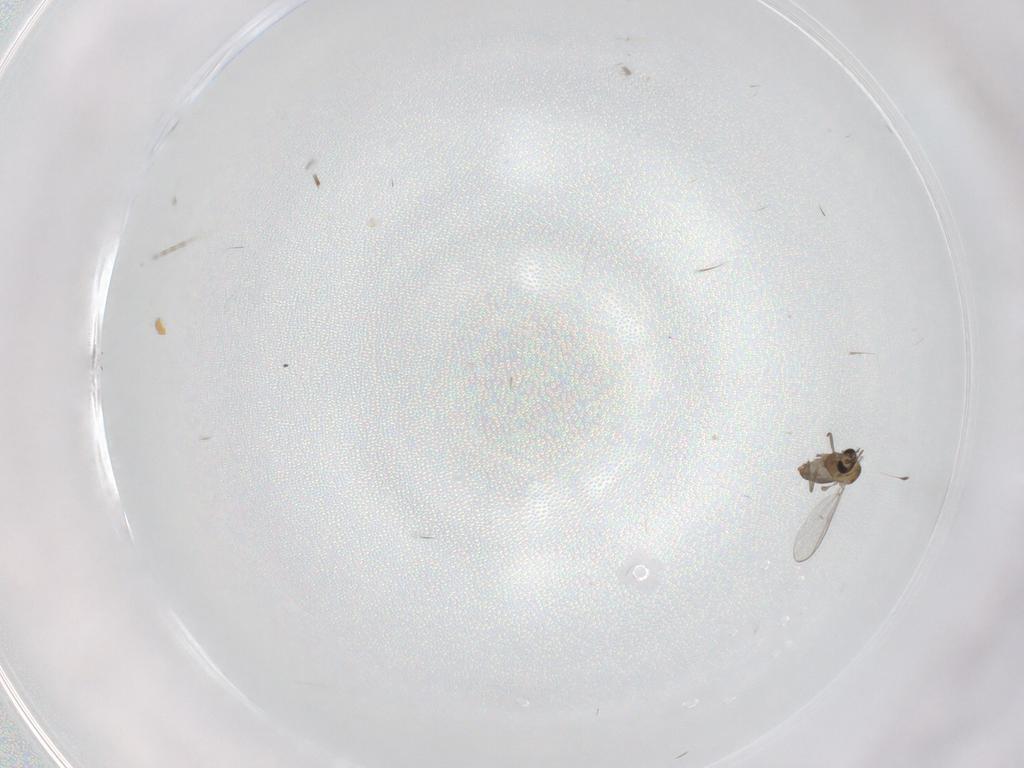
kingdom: Animalia
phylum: Arthropoda
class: Insecta
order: Diptera
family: Chironomidae
